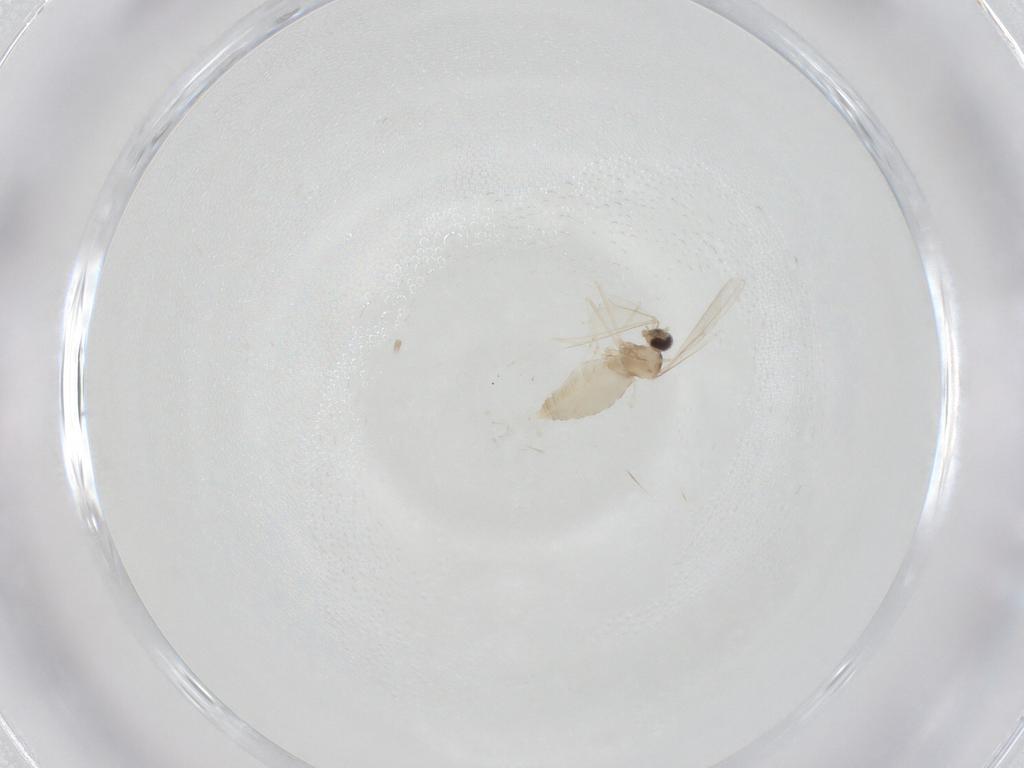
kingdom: Animalia
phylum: Arthropoda
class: Insecta
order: Diptera
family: Cecidomyiidae
